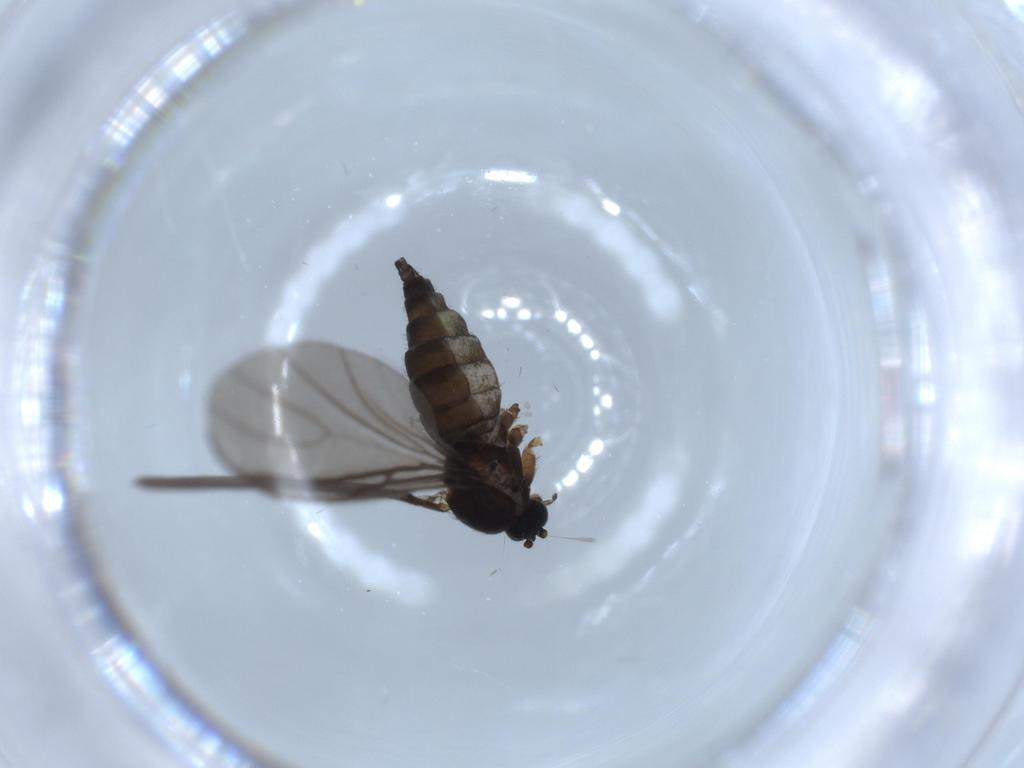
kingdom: Animalia
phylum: Arthropoda
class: Insecta
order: Diptera
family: Sciaridae
